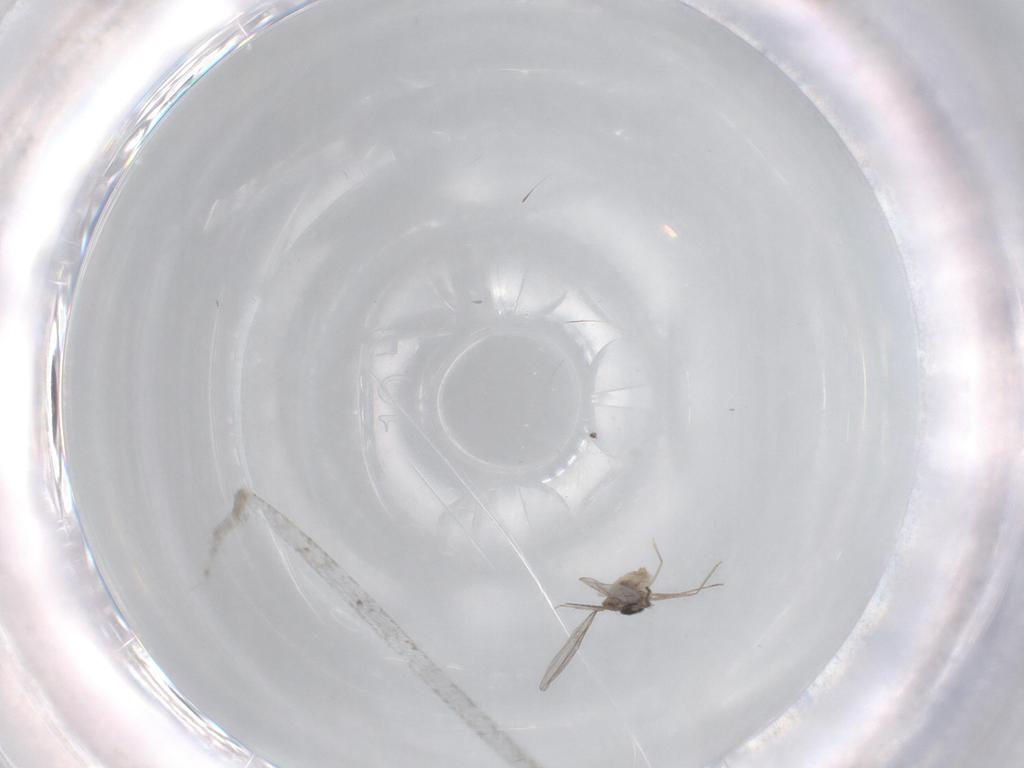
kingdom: Animalia
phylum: Arthropoda
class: Insecta
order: Diptera
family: Cecidomyiidae
